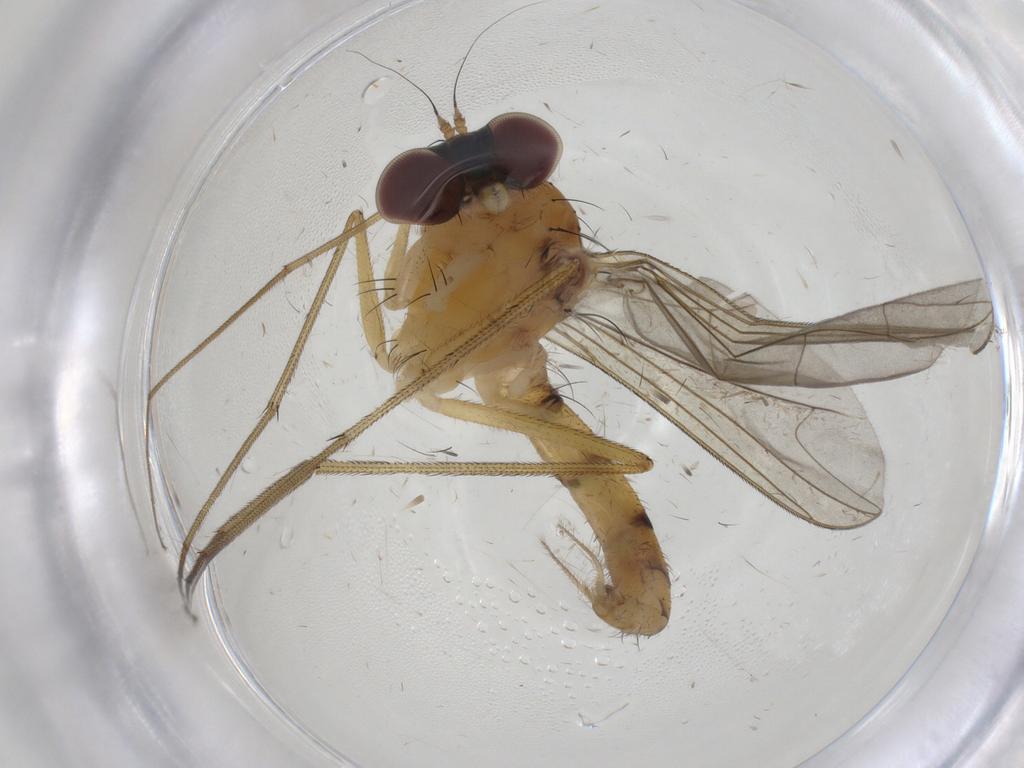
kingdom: Animalia
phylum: Arthropoda
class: Insecta
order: Diptera
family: Dolichopodidae
